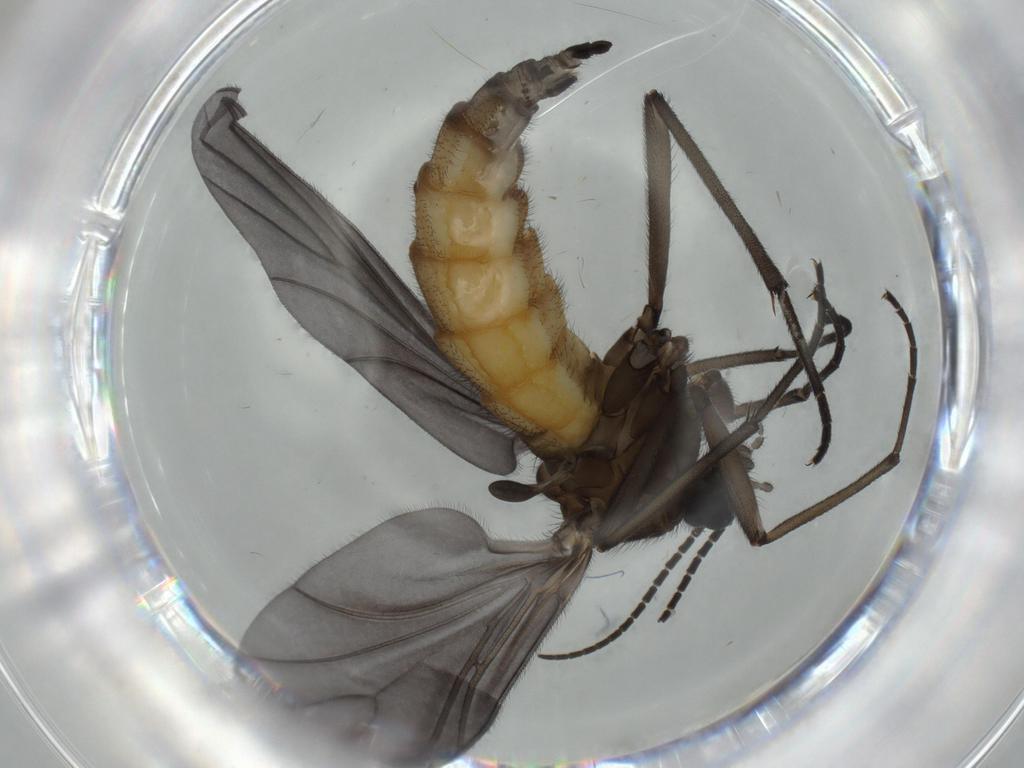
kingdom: Animalia
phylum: Arthropoda
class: Insecta
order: Diptera
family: Sciaridae
